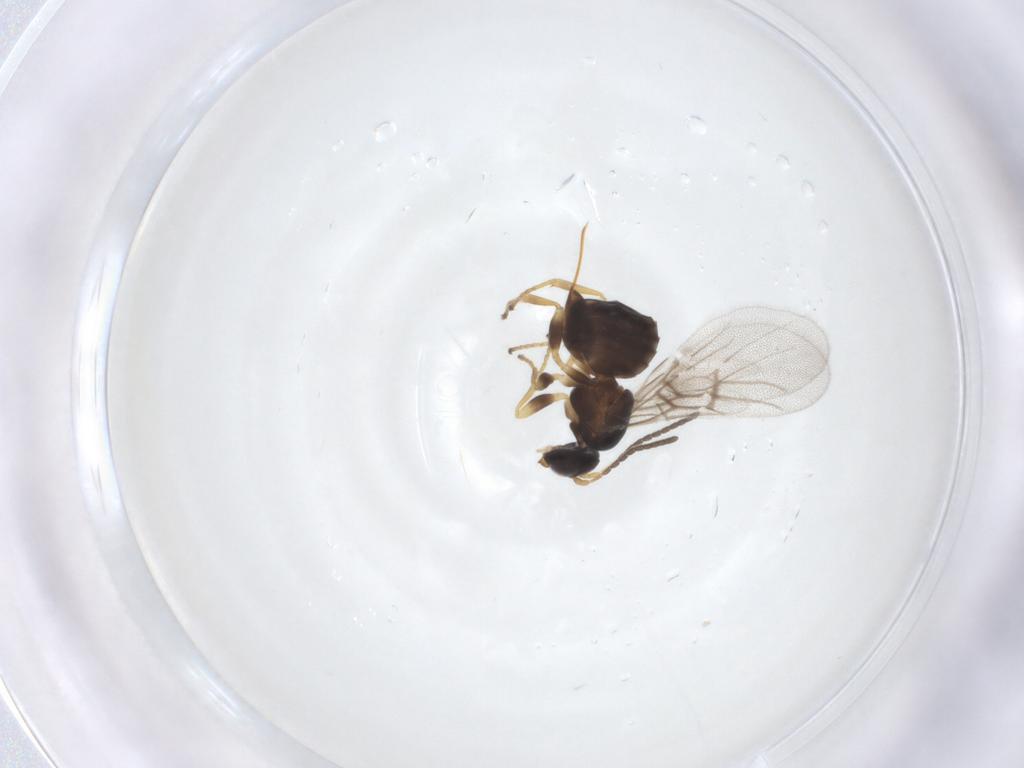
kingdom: Animalia
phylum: Arthropoda
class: Insecta
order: Hymenoptera
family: Cynipidae
